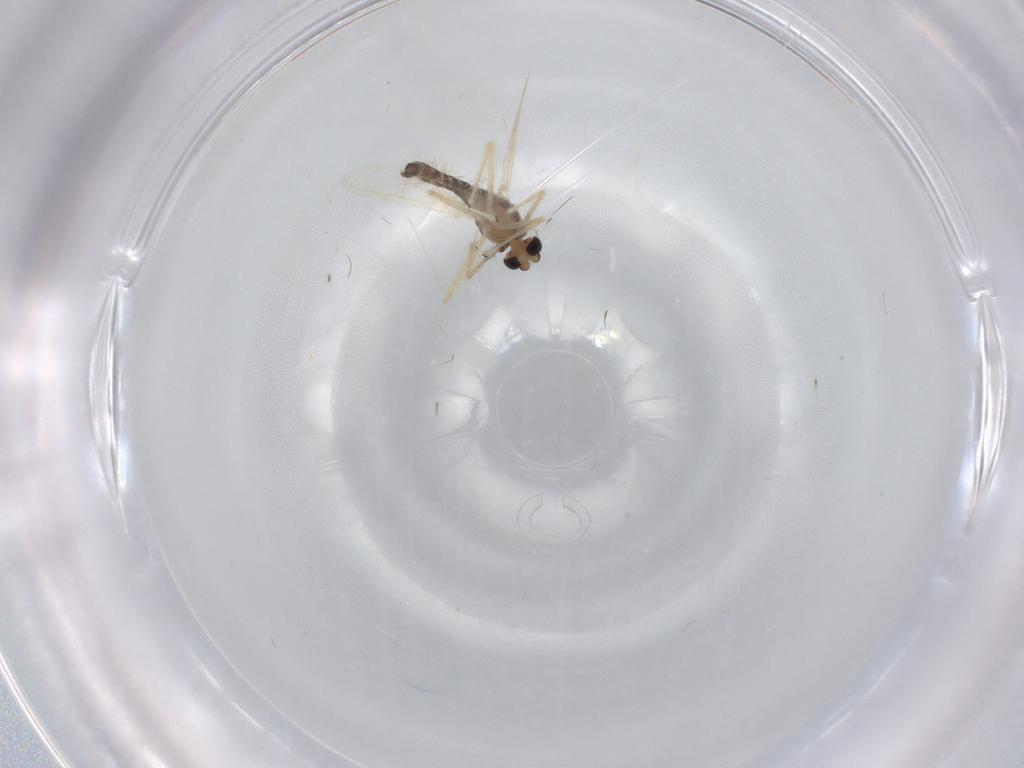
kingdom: Animalia
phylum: Arthropoda
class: Insecta
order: Diptera
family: Chironomidae
